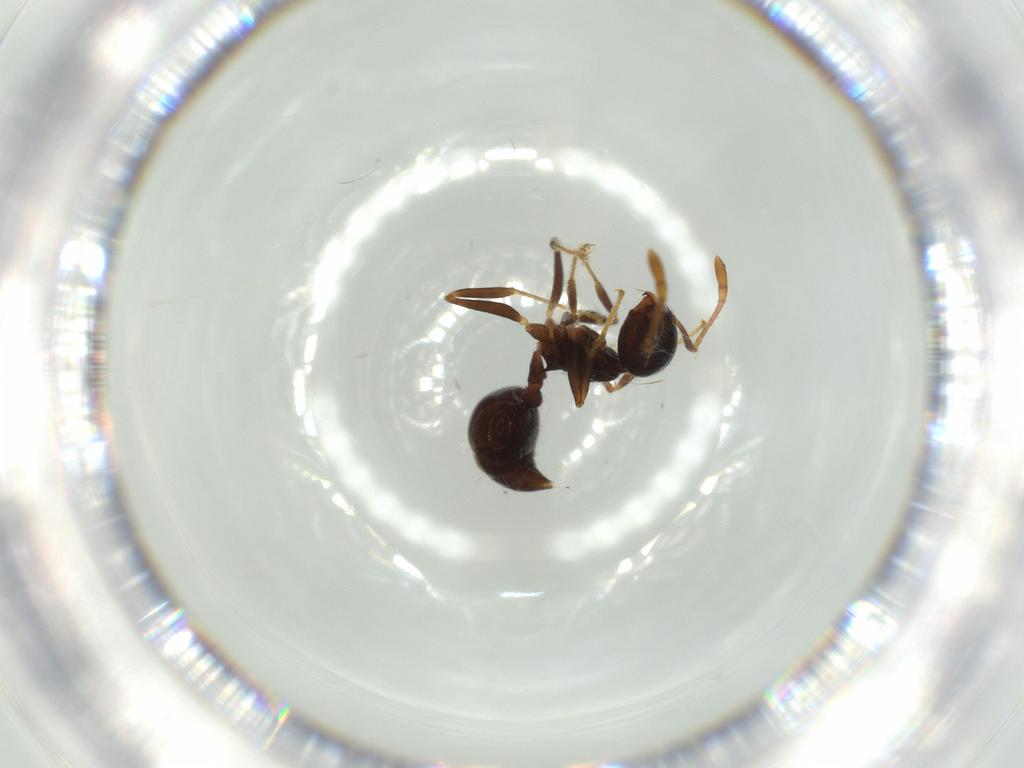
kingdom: Animalia
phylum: Arthropoda
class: Insecta
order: Hymenoptera
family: Formicidae
